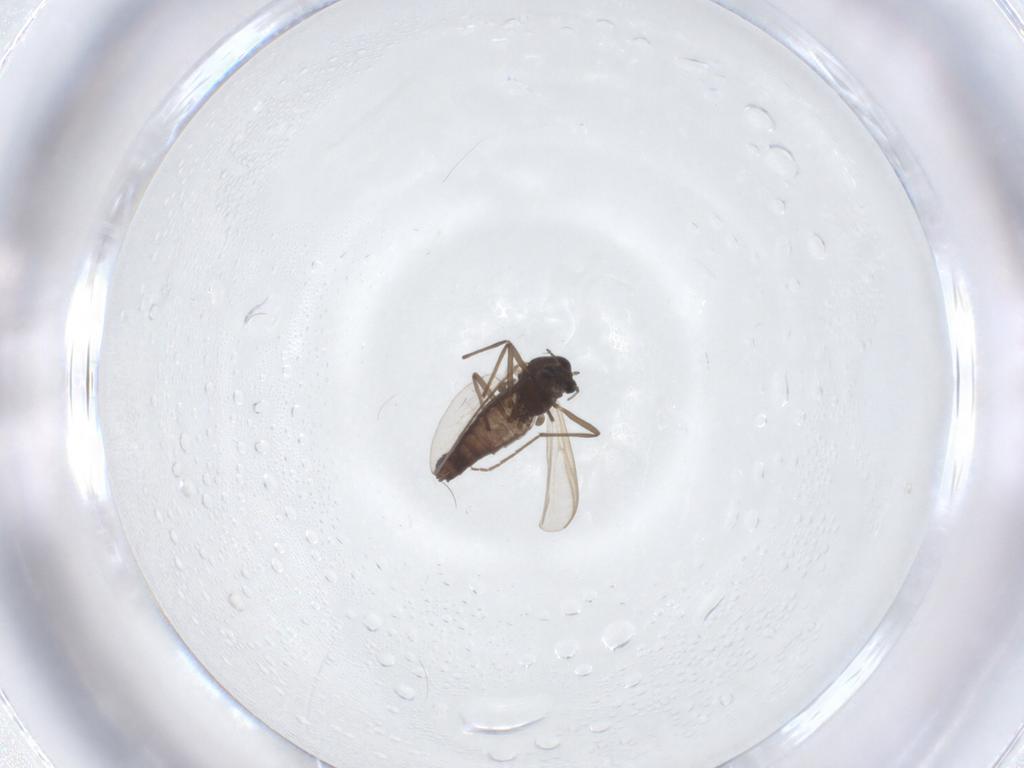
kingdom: Animalia
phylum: Arthropoda
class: Insecta
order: Diptera
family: Chironomidae
